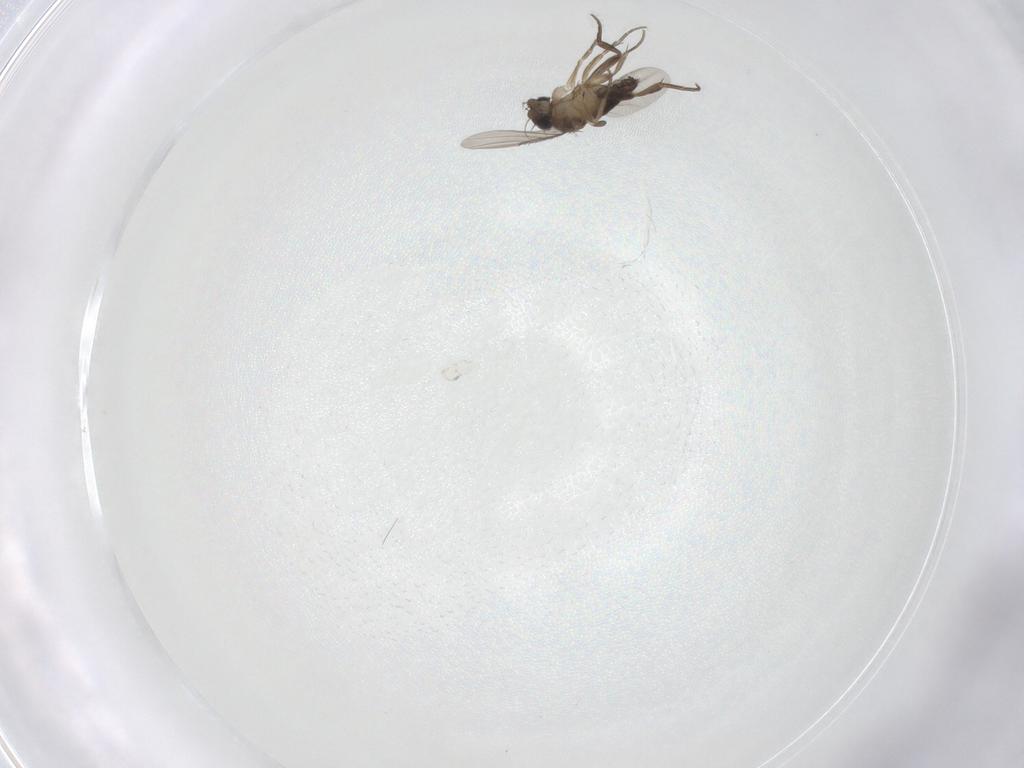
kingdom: Animalia
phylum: Arthropoda
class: Insecta
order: Diptera
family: Phoridae
